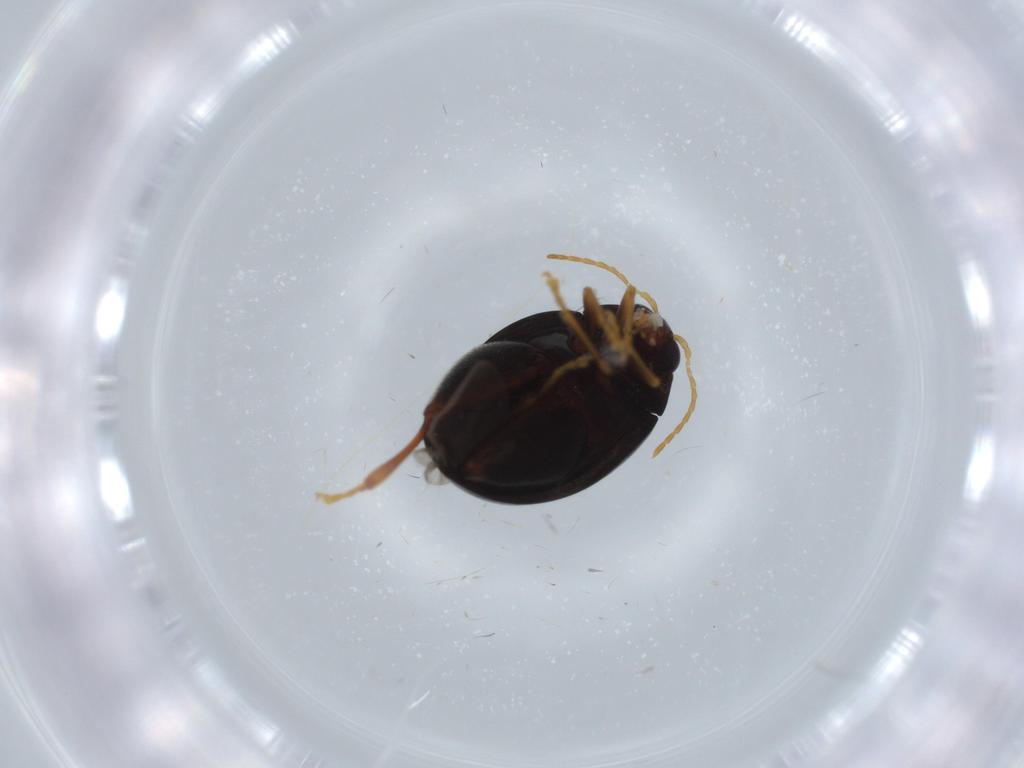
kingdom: Animalia
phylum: Arthropoda
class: Insecta
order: Coleoptera
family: Chrysomelidae
